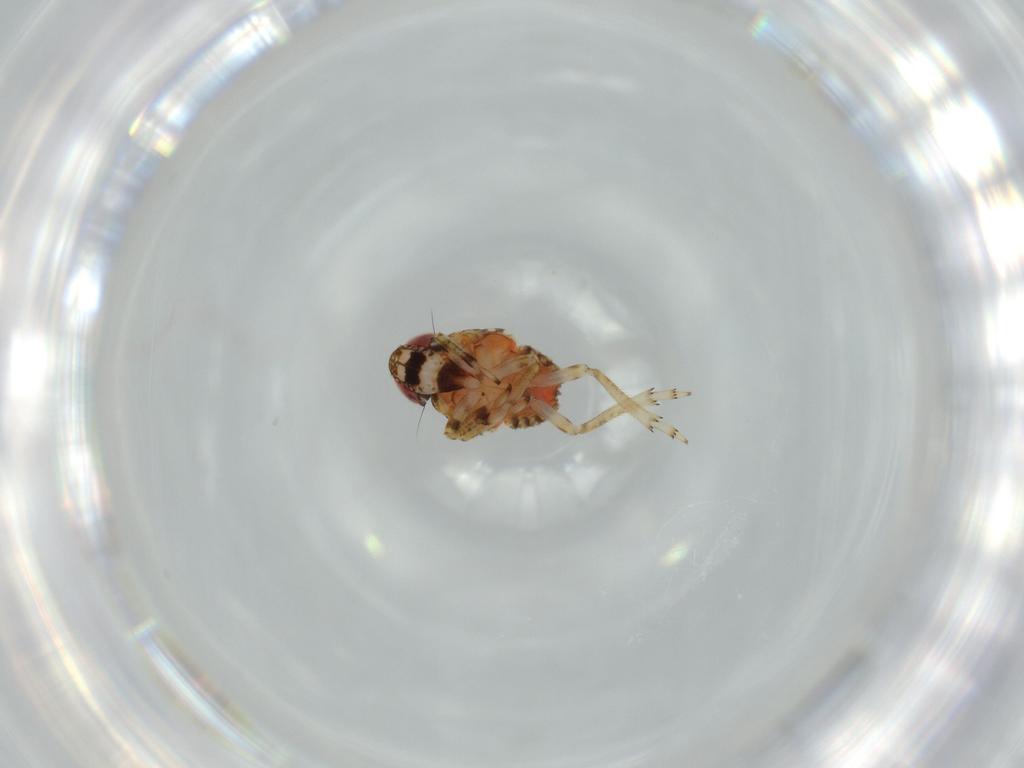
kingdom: Animalia
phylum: Arthropoda
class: Insecta
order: Hemiptera
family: Issidae
